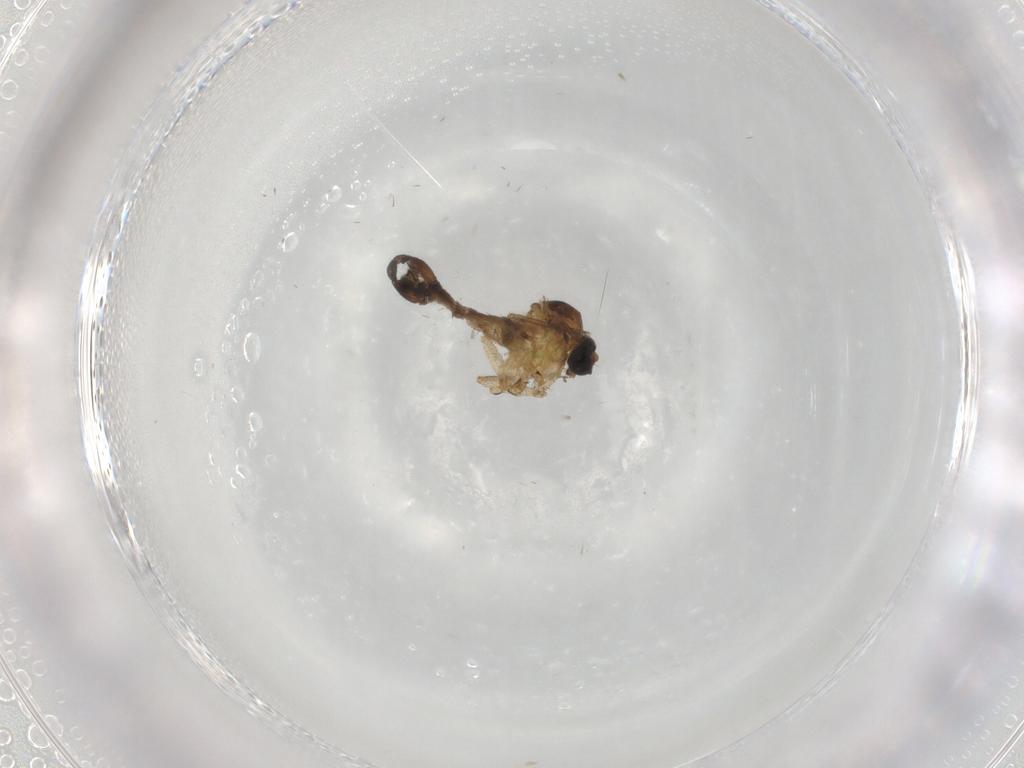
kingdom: Animalia
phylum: Arthropoda
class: Insecta
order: Diptera
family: Sciaridae
